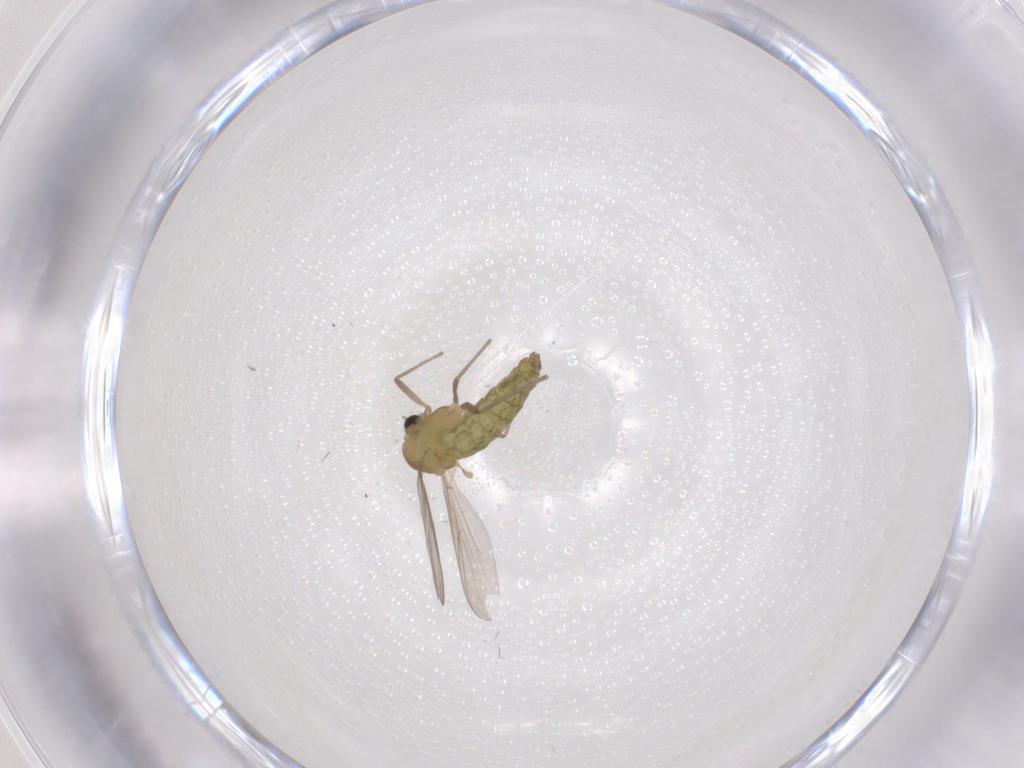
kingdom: Animalia
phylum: Arthropoda
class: Insecta
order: Diptera
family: Chironomidae
